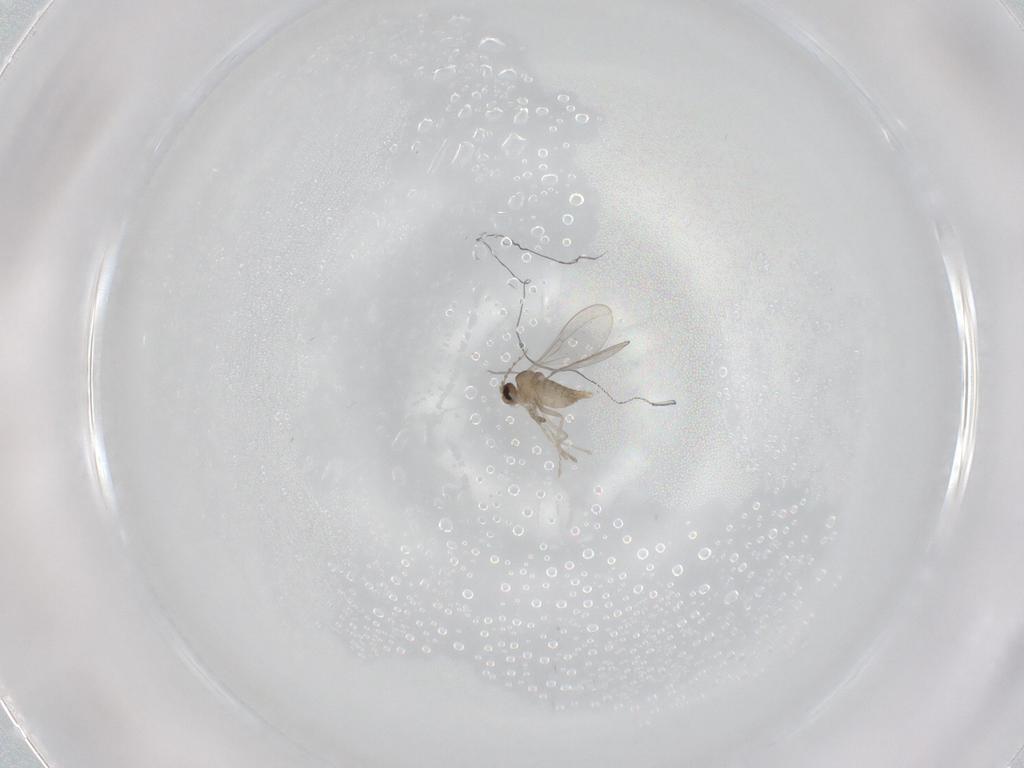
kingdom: Animalia
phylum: Arthropoda
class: Insecta
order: Diptera
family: Cecidomyiidae
